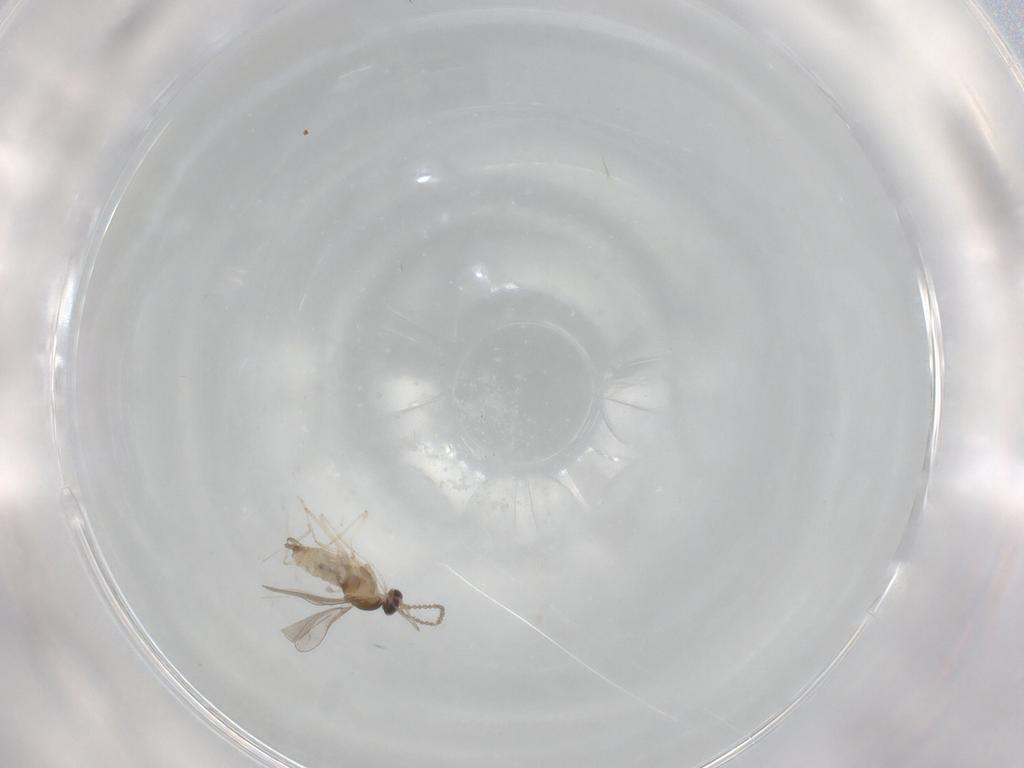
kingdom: Animalia
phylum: Arthropoda
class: Insecta
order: Diptera
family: Cecidomyiidae
